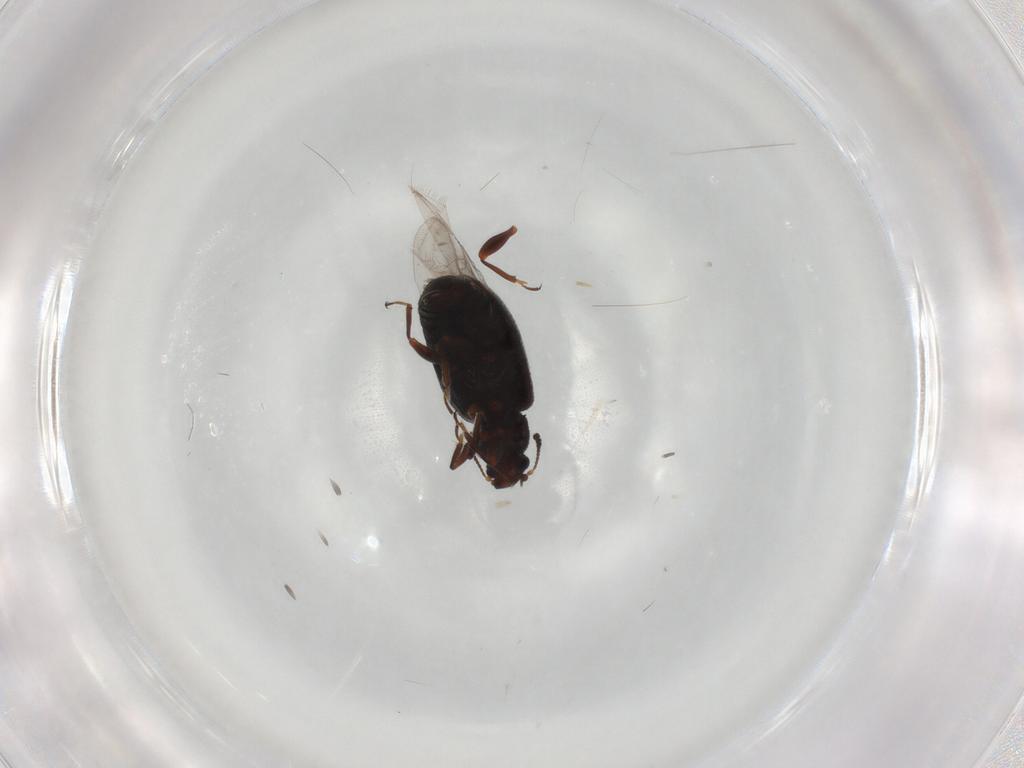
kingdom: Animalia
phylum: Arthropoda
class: Insecta
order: Coleoptera
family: Latridiidae
